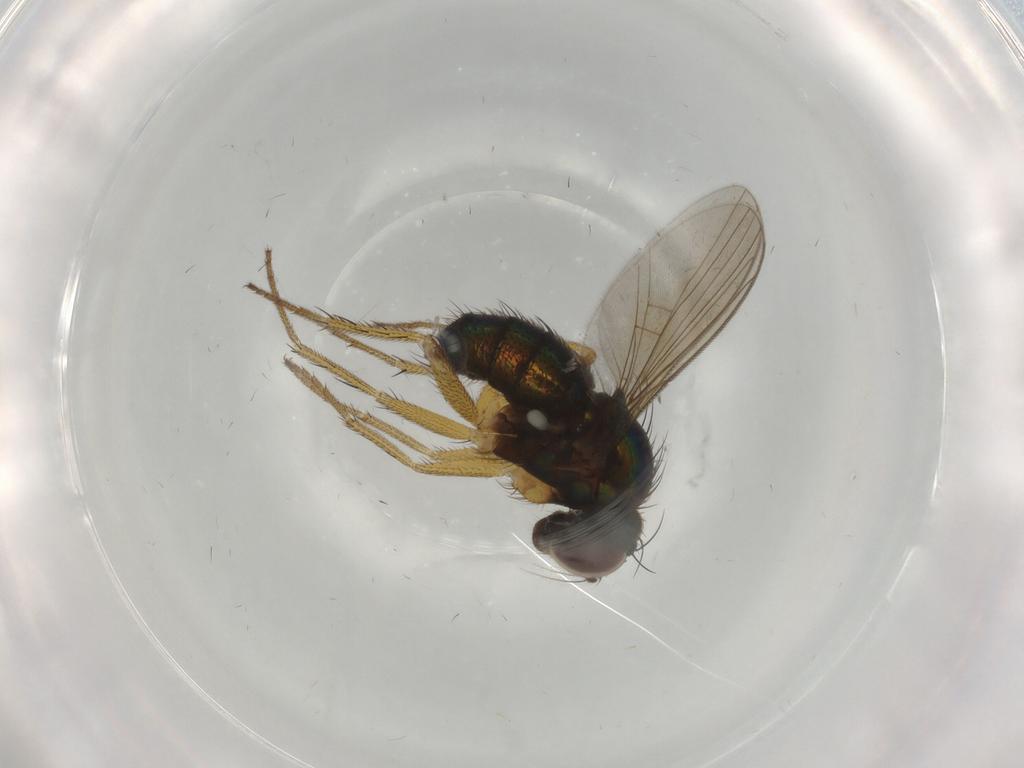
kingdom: Animalia
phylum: Arthropoda
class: Insecta
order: Diptera
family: Dolichopodidae
